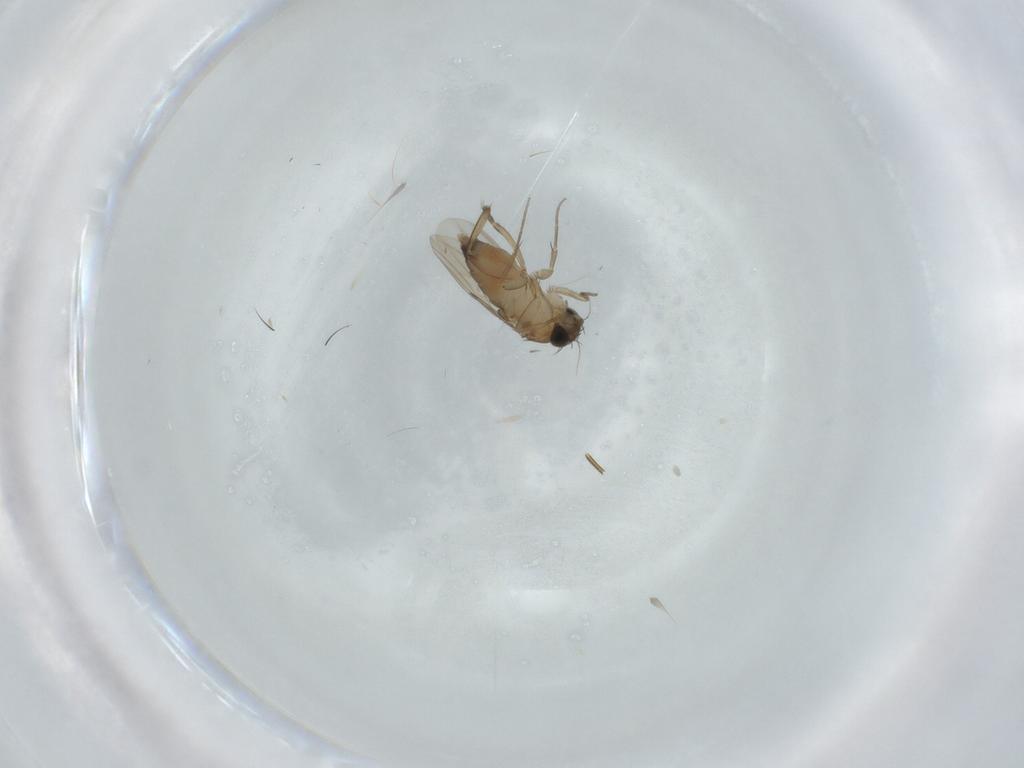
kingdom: Animalia
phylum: Arthropoda
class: Insecta
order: Diptera
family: Phoridae
